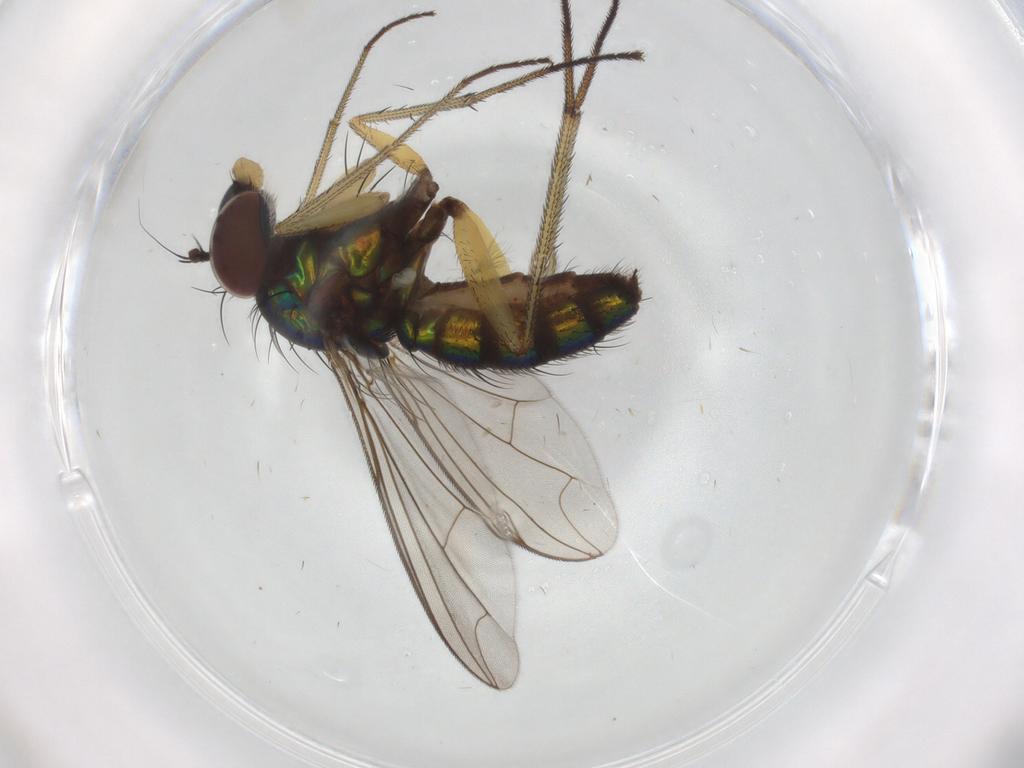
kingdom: Animalia
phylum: Arthropoda
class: Insecta
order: Diptera
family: Dolichopodidae
